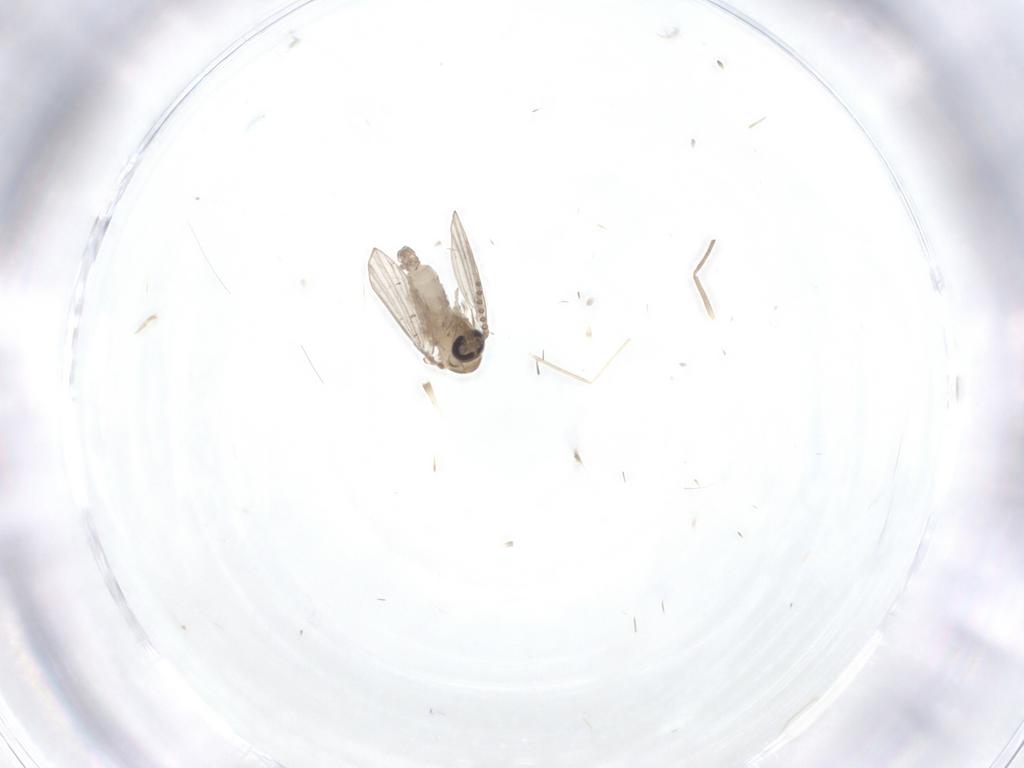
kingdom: Animalia
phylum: Arthropoda
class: Insecta
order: Diptera
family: Psychodidae
